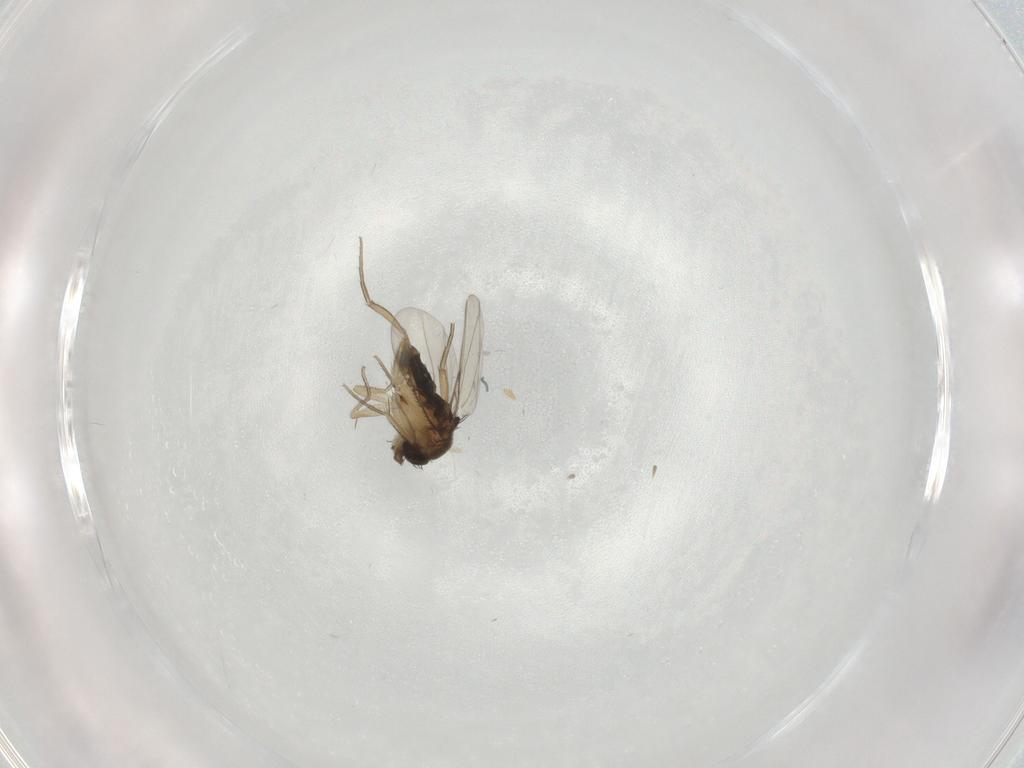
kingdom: Animalia
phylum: Arthropoda
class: Insecta
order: Diptera
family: Phoridae
